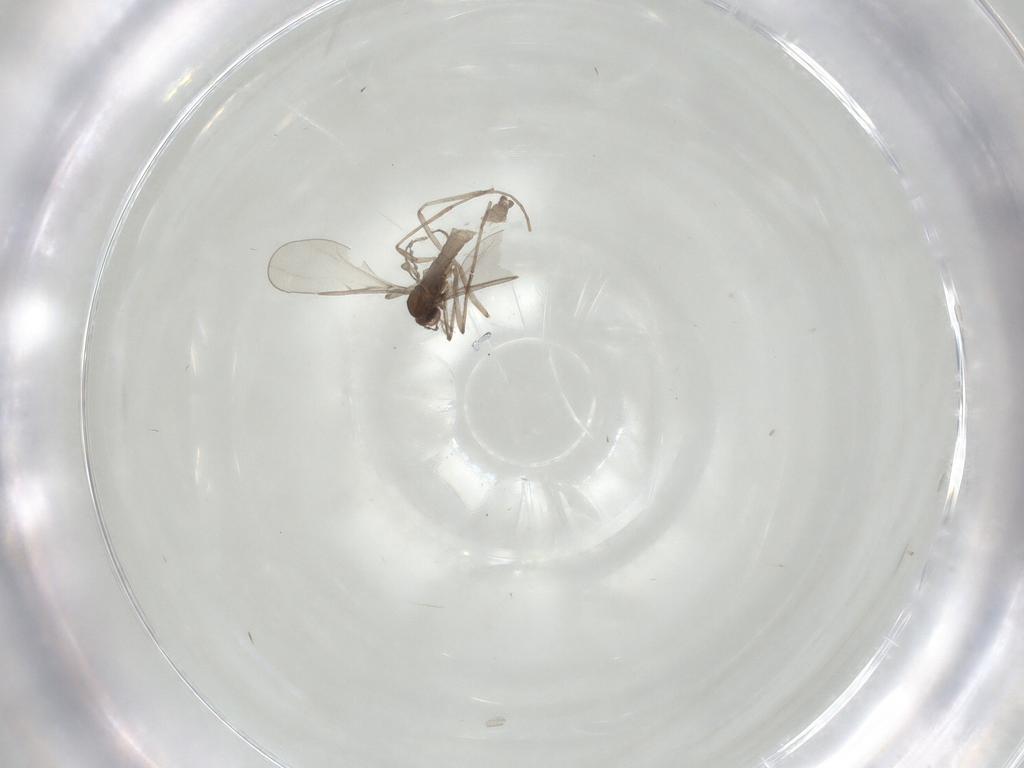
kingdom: Animalia
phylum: Arthropoda
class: Insecta
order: Diptera
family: Cecidomyiidae
